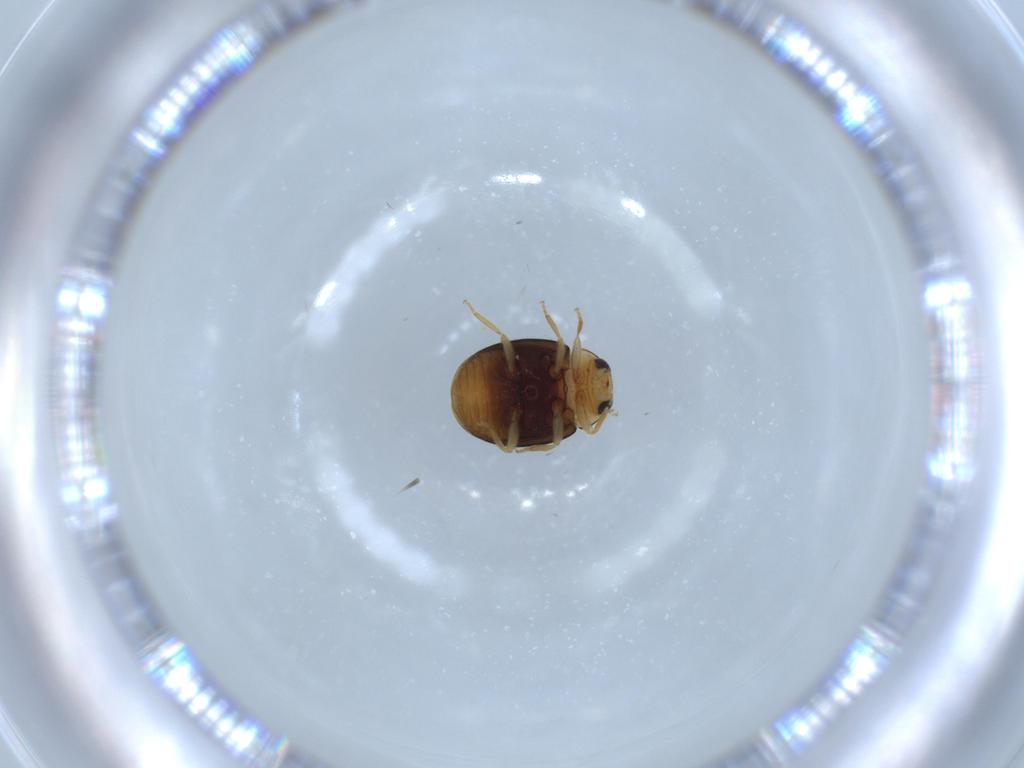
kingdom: Animalia
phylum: Arthropoda
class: Insecta
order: Coleoptera
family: Coccinellidae
